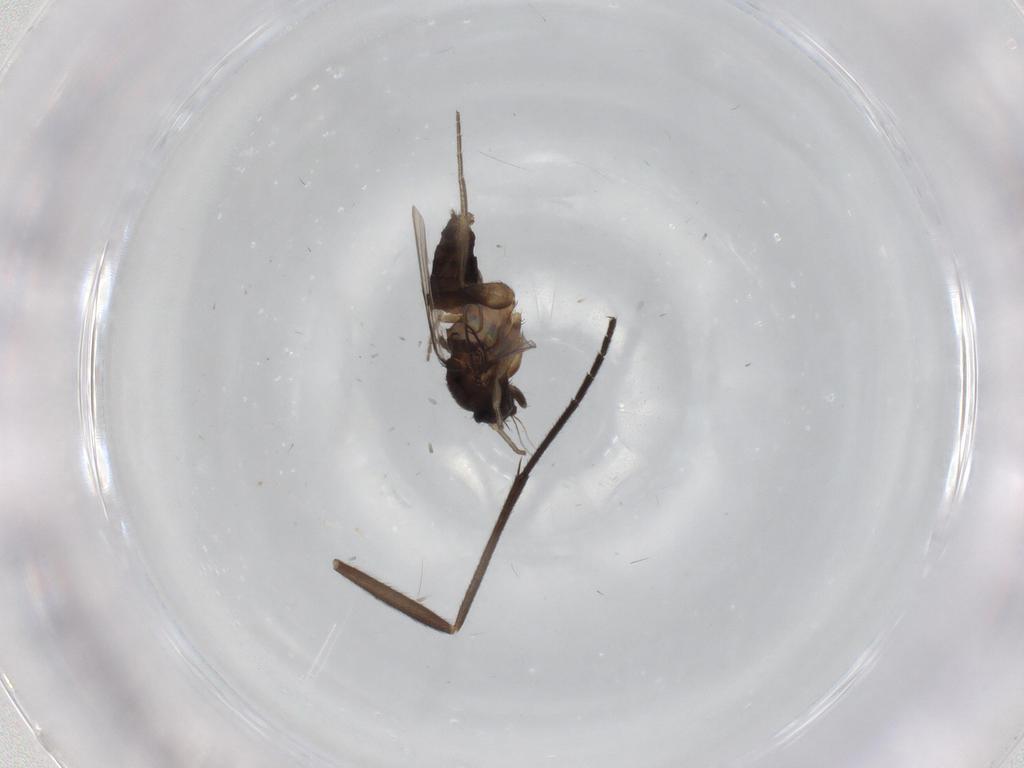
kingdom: Animalia
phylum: Arthropoda
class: Insecta
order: Diptera
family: Phoridae
